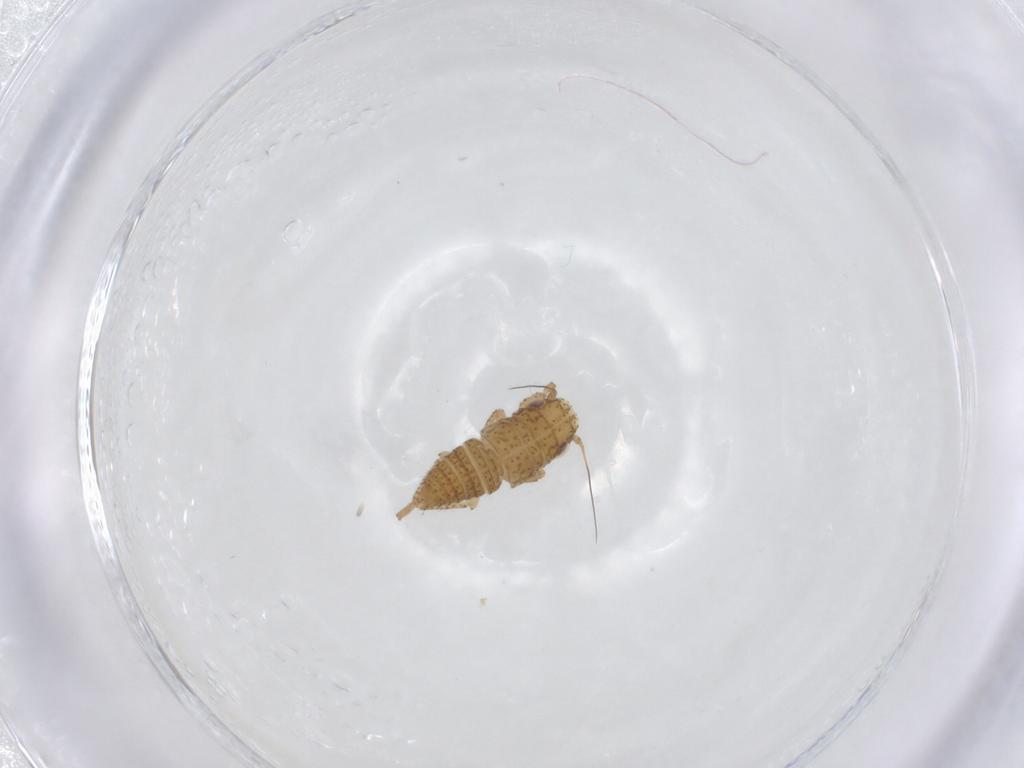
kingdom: Animalia
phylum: Arthropoda
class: Insecta
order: Hemiptera
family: Cicadellidae
